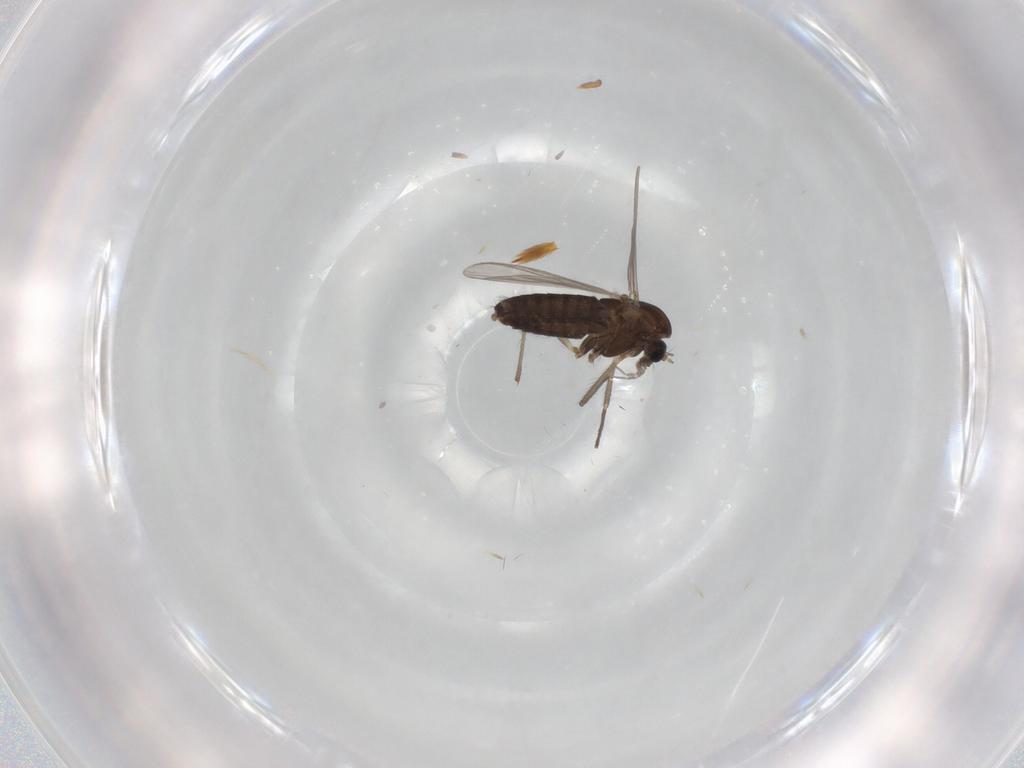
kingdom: Animalia
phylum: Arthropoda
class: Insecta
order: Diptera
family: Chironomidae
